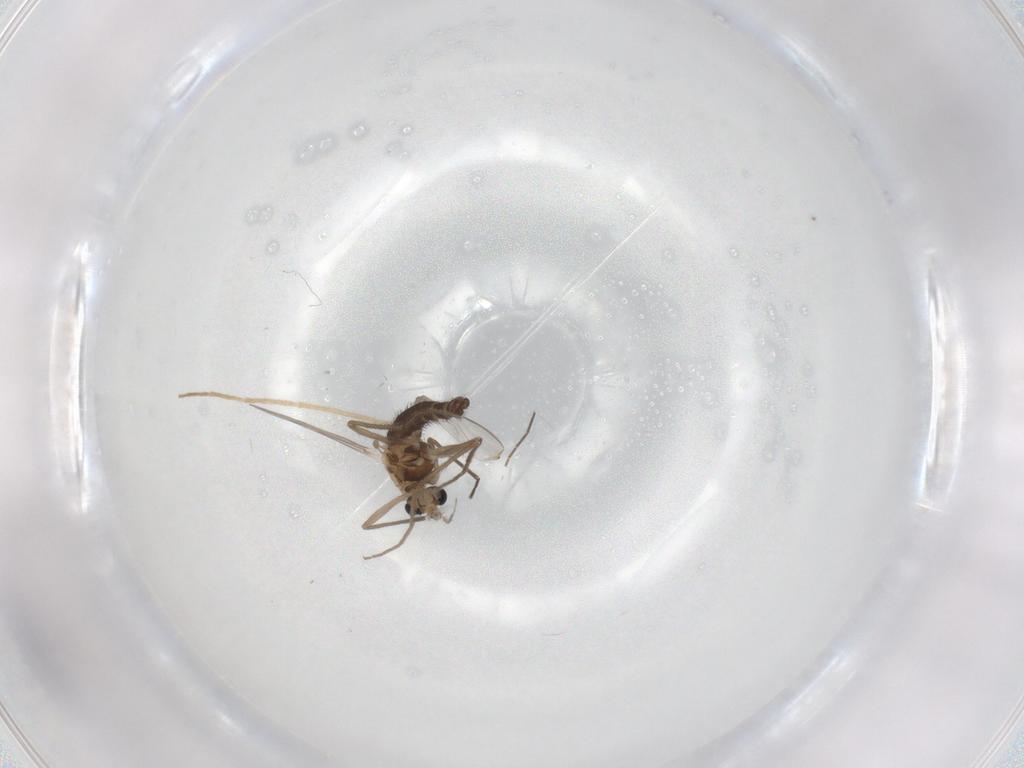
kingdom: Animalia
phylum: Arthropoda
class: Insecta
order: Diptera
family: Chironomidae
